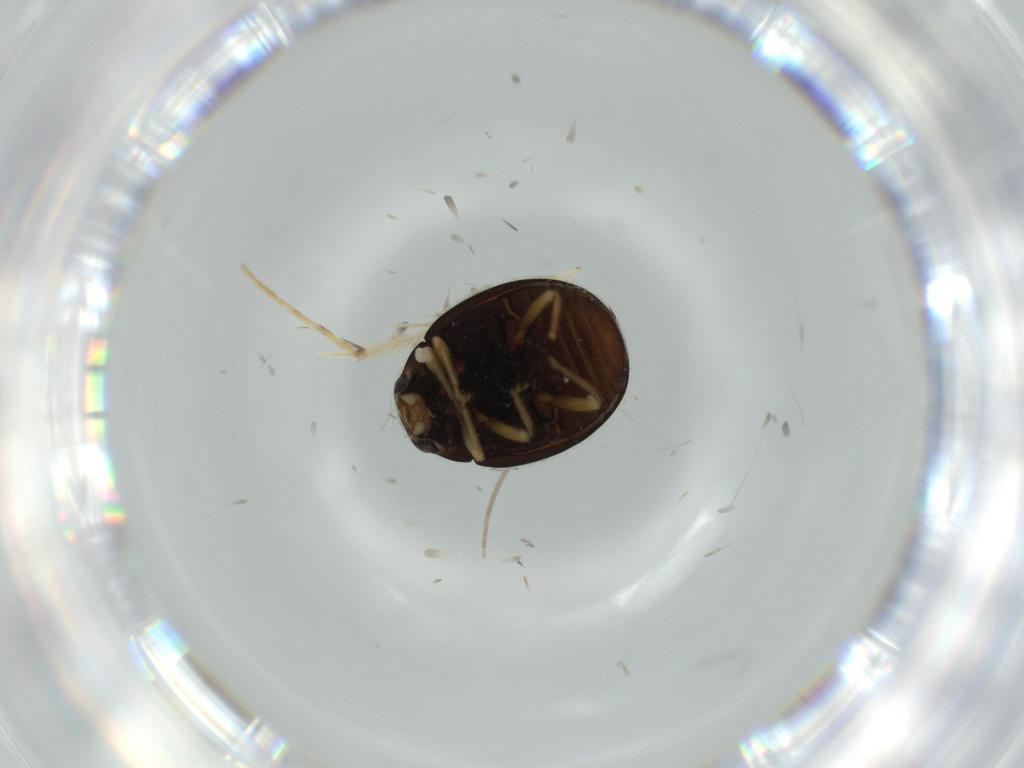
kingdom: Animalia
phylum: Arthropoda
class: Insecta
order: Coleoptera
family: Coccinellidae
